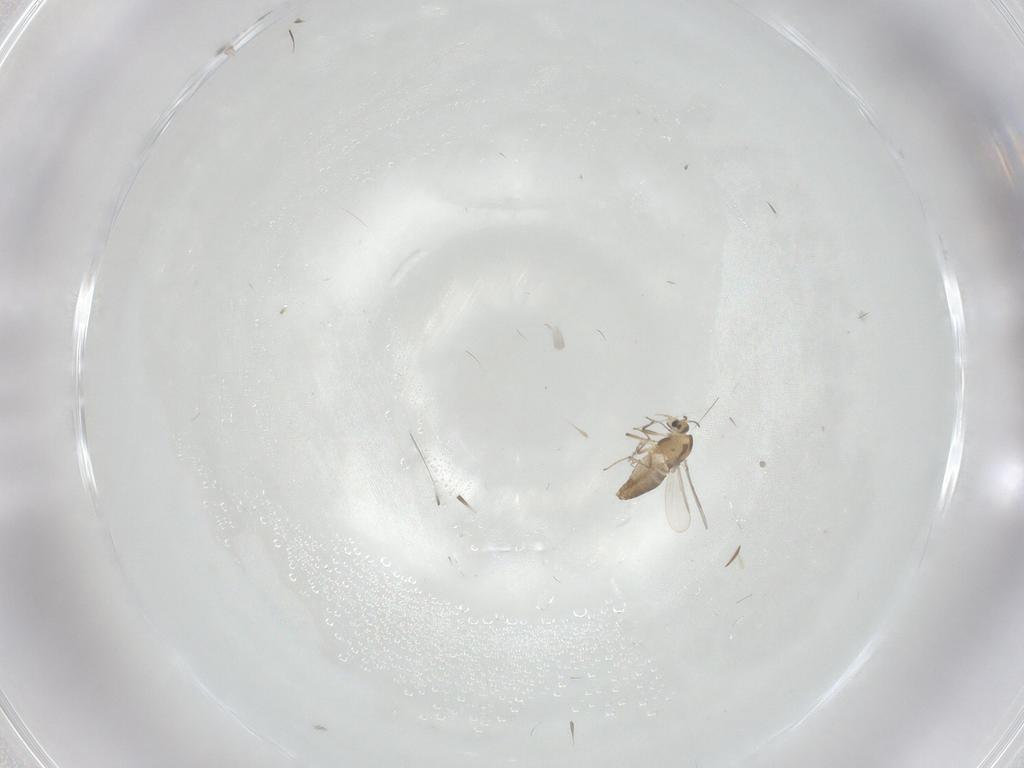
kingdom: Animalia
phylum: Arthropoda
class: Insecta
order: Diptera
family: Chironomidae
